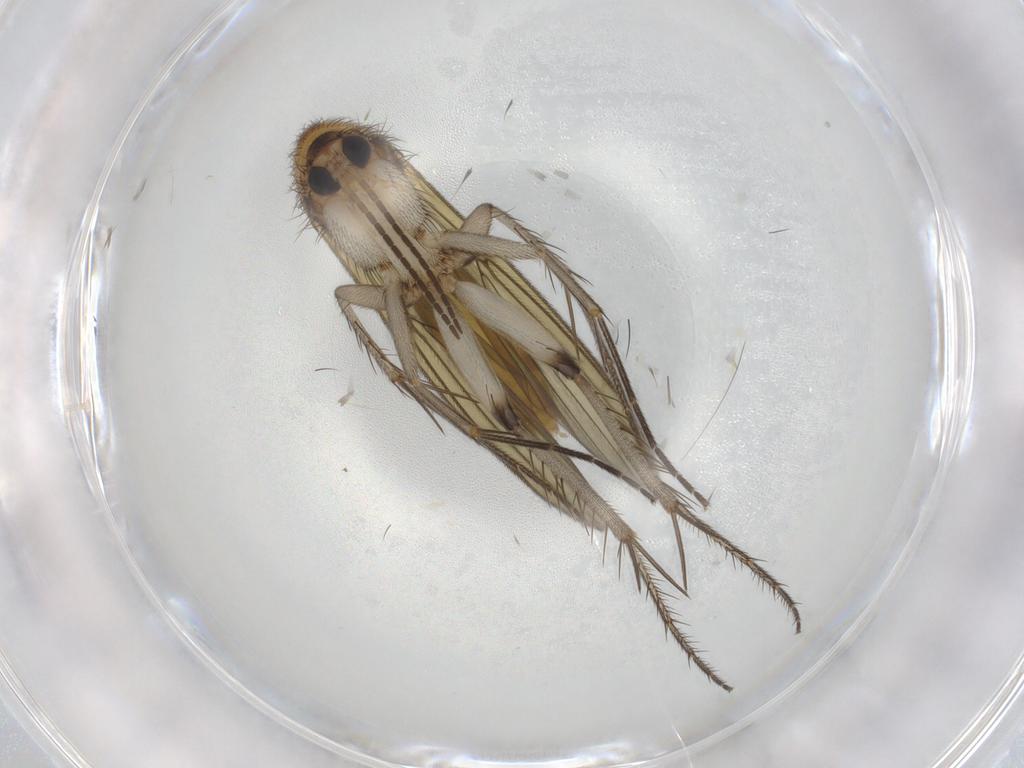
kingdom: Animalia
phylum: Arthropoda
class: Insecta
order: Diptera
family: Mycetophilidae
